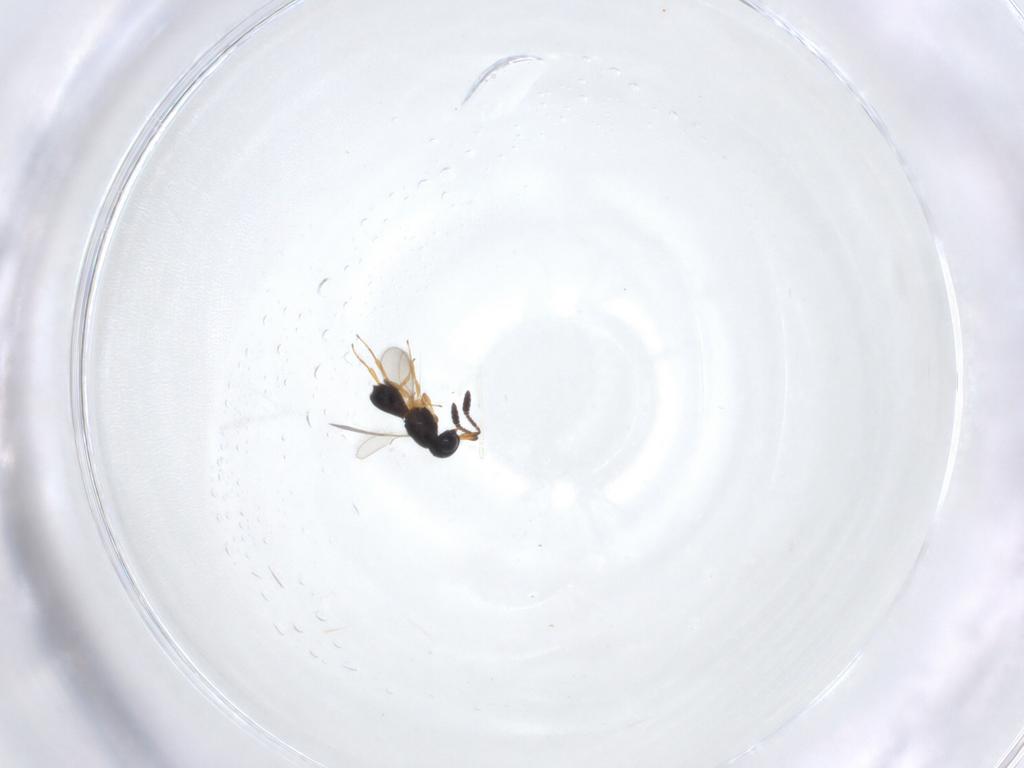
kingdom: Animalia
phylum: Arthropoda
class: Insecta
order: Hymenoptera
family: Scelionidae
